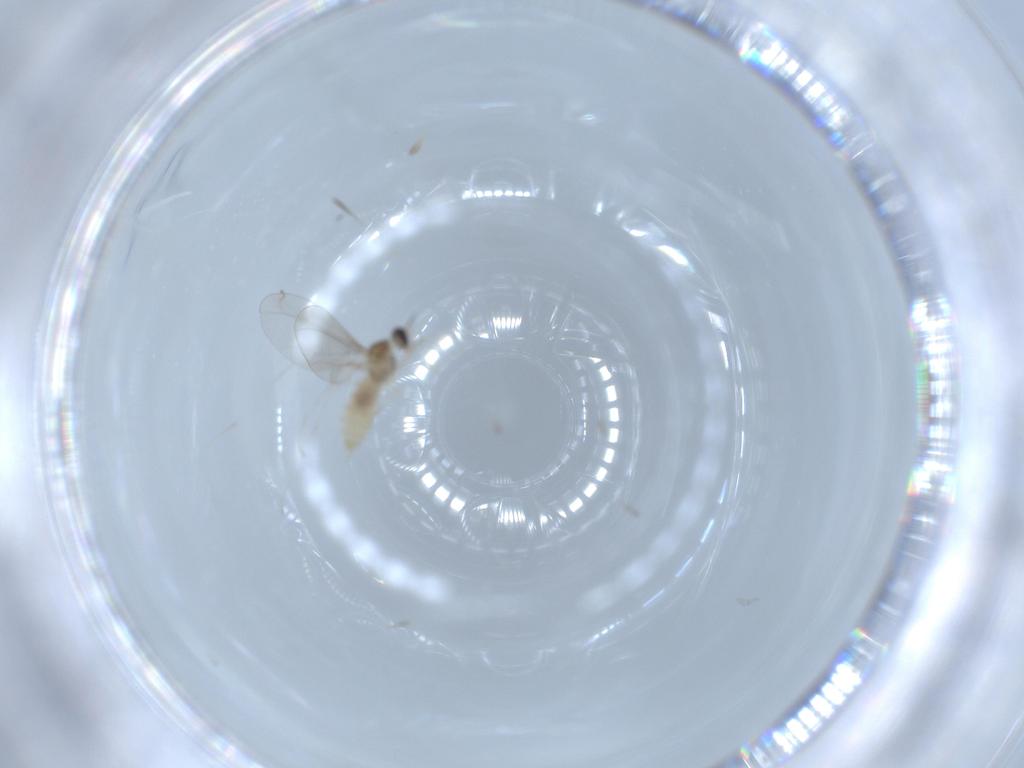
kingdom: Animalia
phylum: Arthropoda
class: Insecta
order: Diptera
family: Cecidomyiidae
